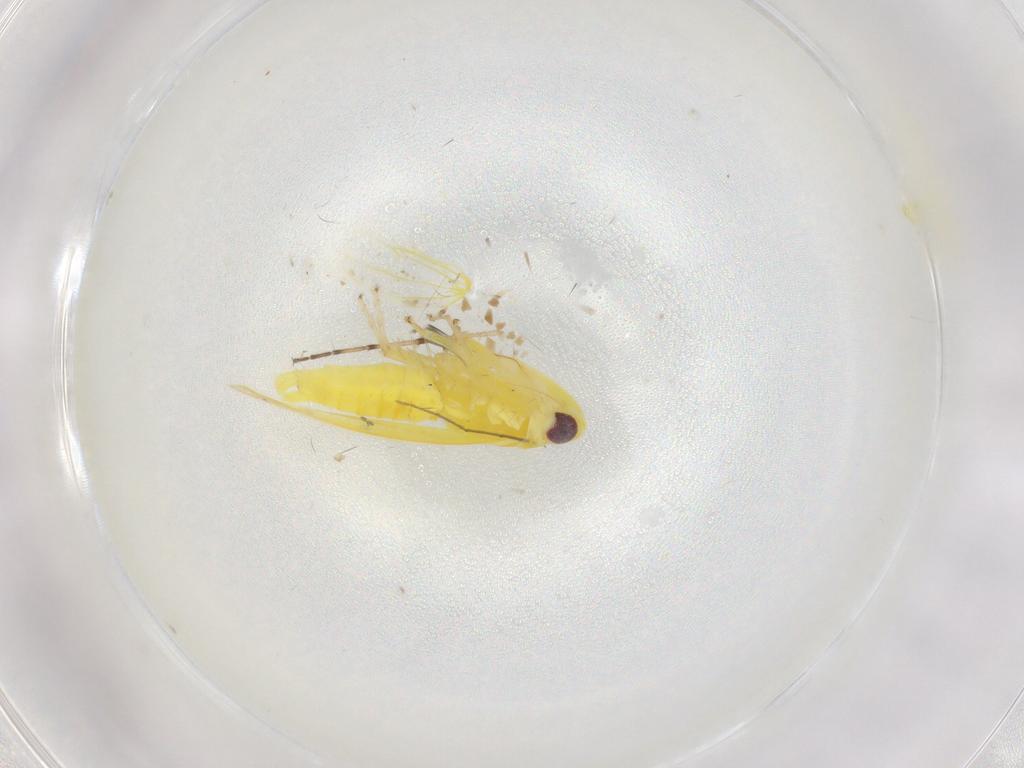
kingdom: Animalia
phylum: Arthropoda
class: Insecta
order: Hemiptera
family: Cicadellidae
